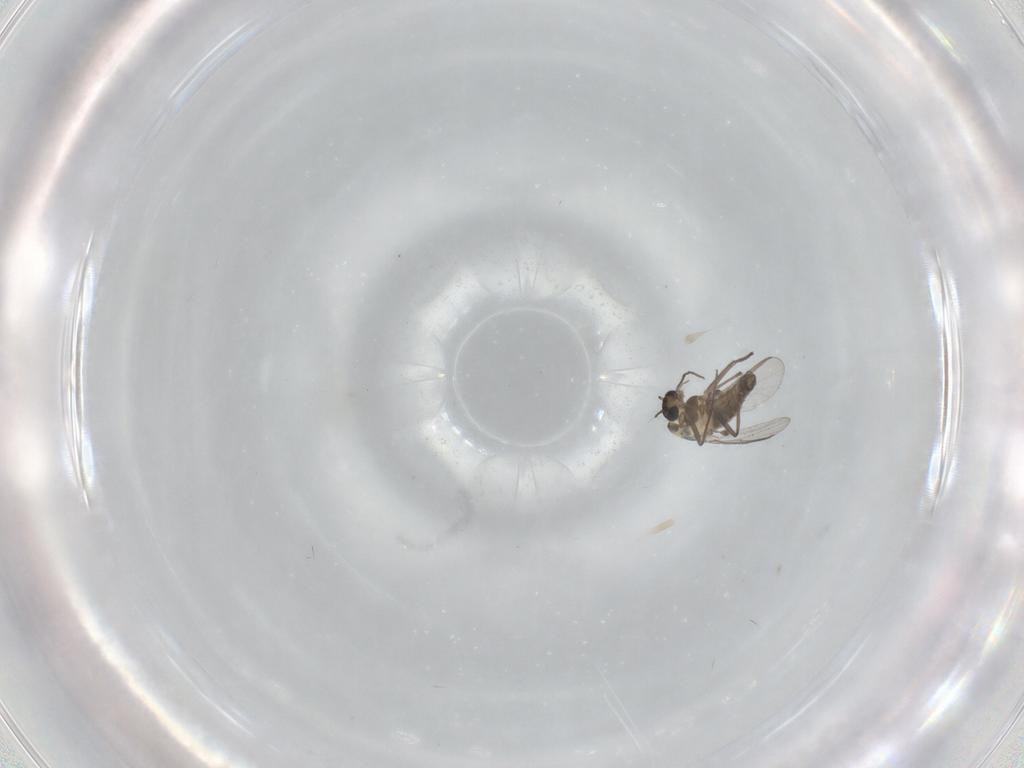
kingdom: Animalia
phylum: Arthropoda
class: Insecta
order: Diptera
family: Chironomidae
